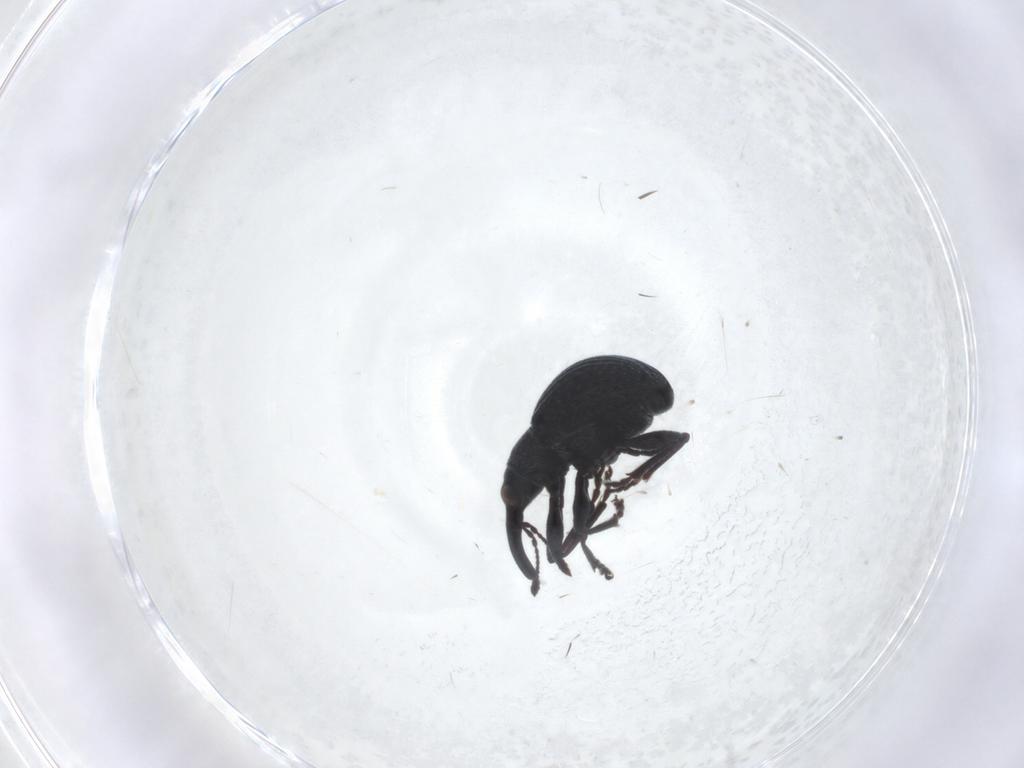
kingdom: Animalia
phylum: Arthropoda
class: Insecta
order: Coleoptera
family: Brentidae
